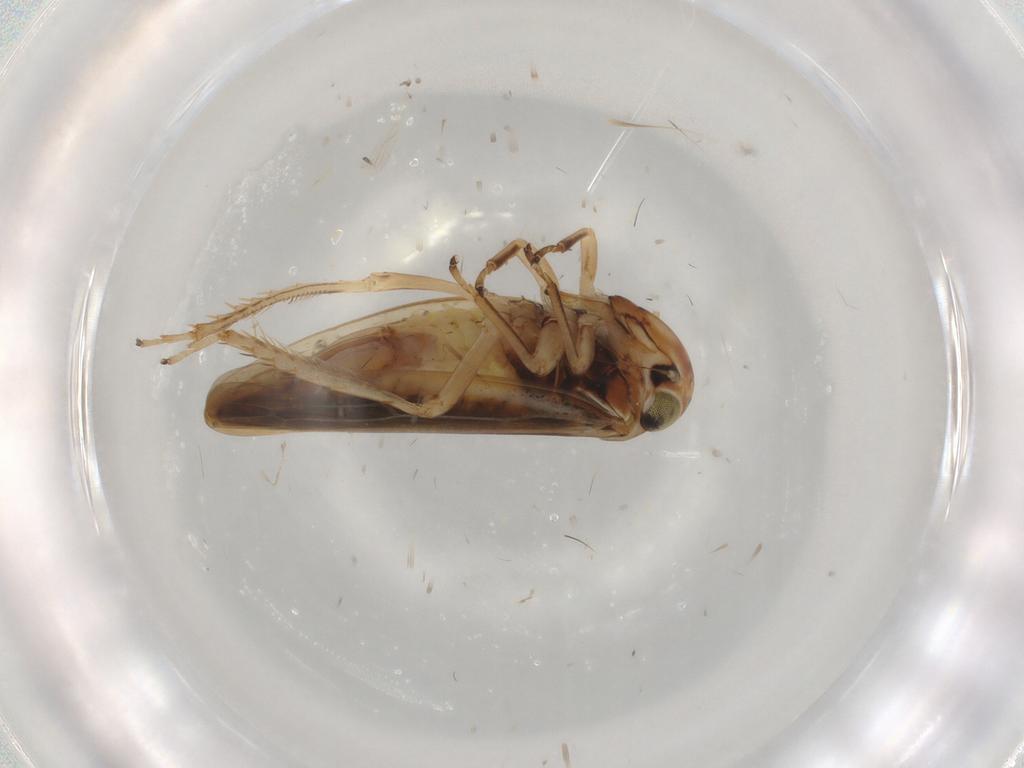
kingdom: Animalia
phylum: Arthropoda
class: Insecta
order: Hemiptera
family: Cicadellidae
